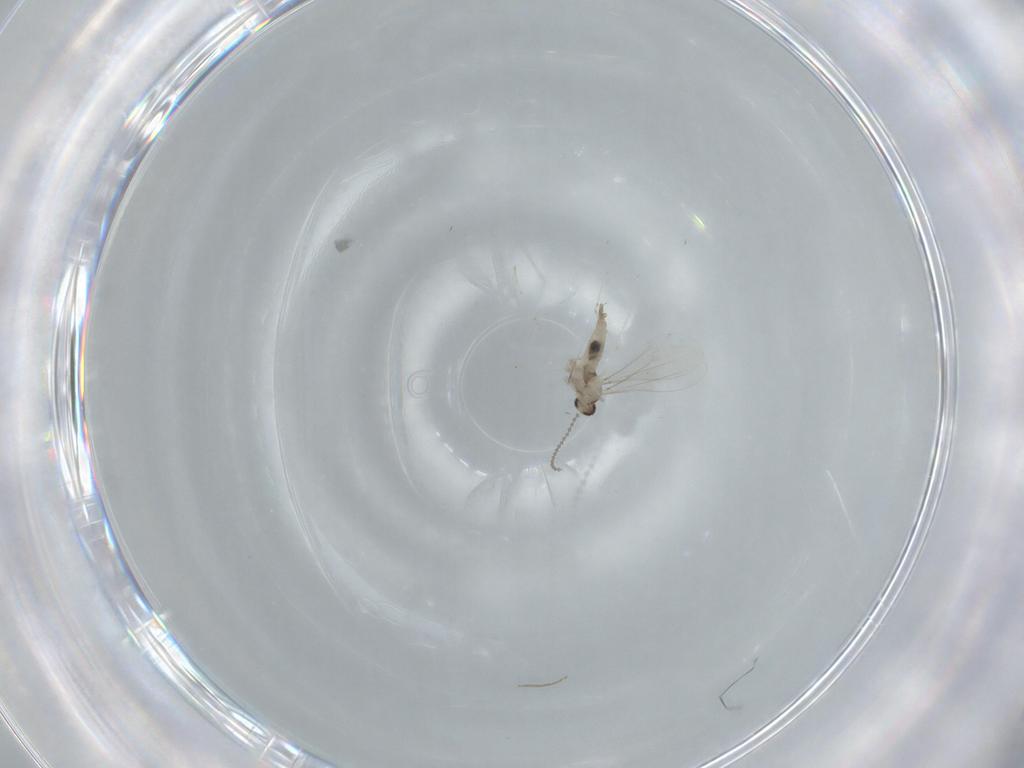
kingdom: Animalia
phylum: Arthropoda
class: Insecta
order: Diptera
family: Cecidomyiidae
